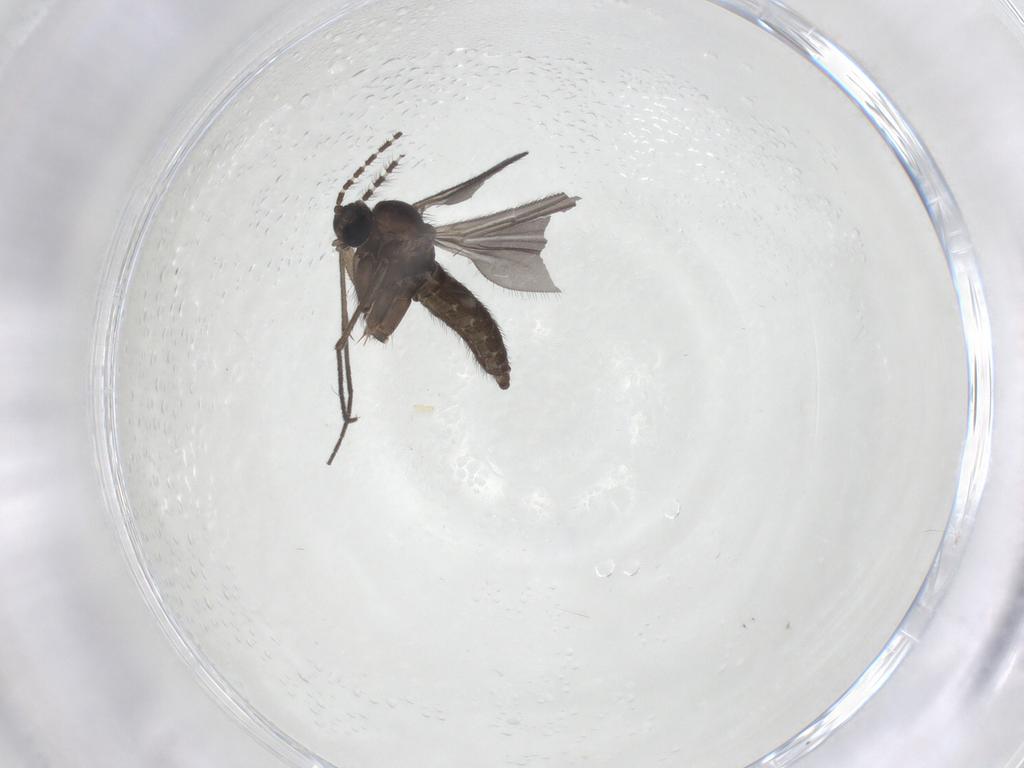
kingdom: Animalia
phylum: Arthropoda
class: Insecta
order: Diptera
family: Sciaridae
